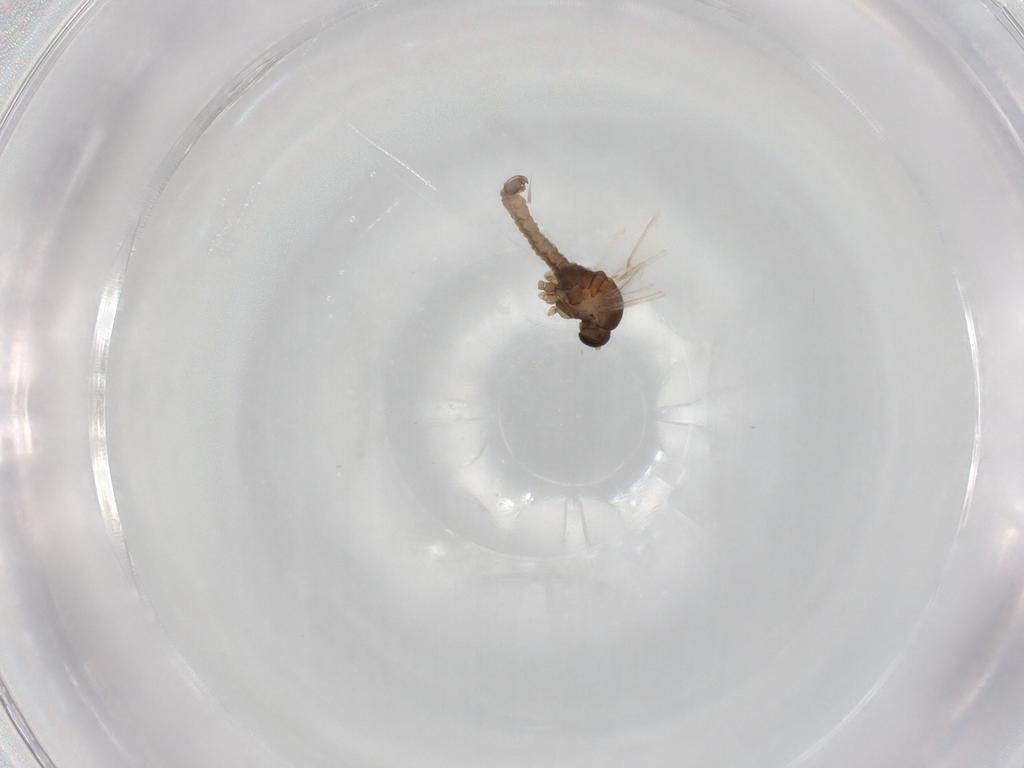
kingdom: Animalia
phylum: Arthropoda
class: Insecta
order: Diptera
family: Cecidomyiidae
